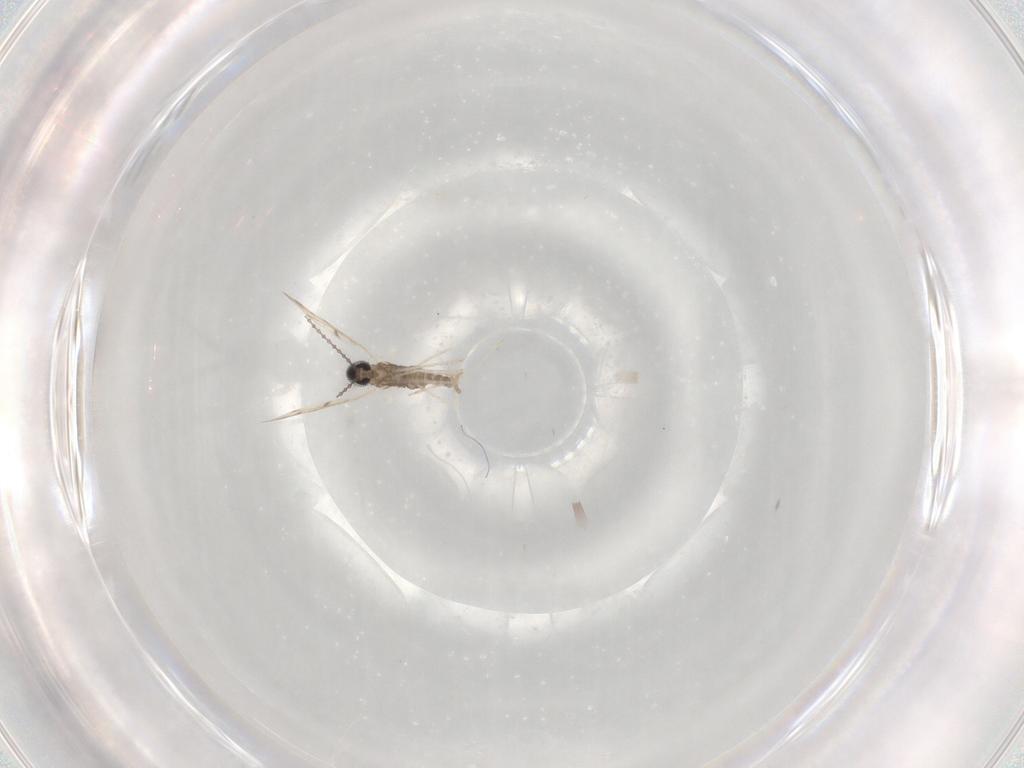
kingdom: Animalia
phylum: Arthropoda
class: Insecta
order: Diptera
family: Cecidomyiidae
